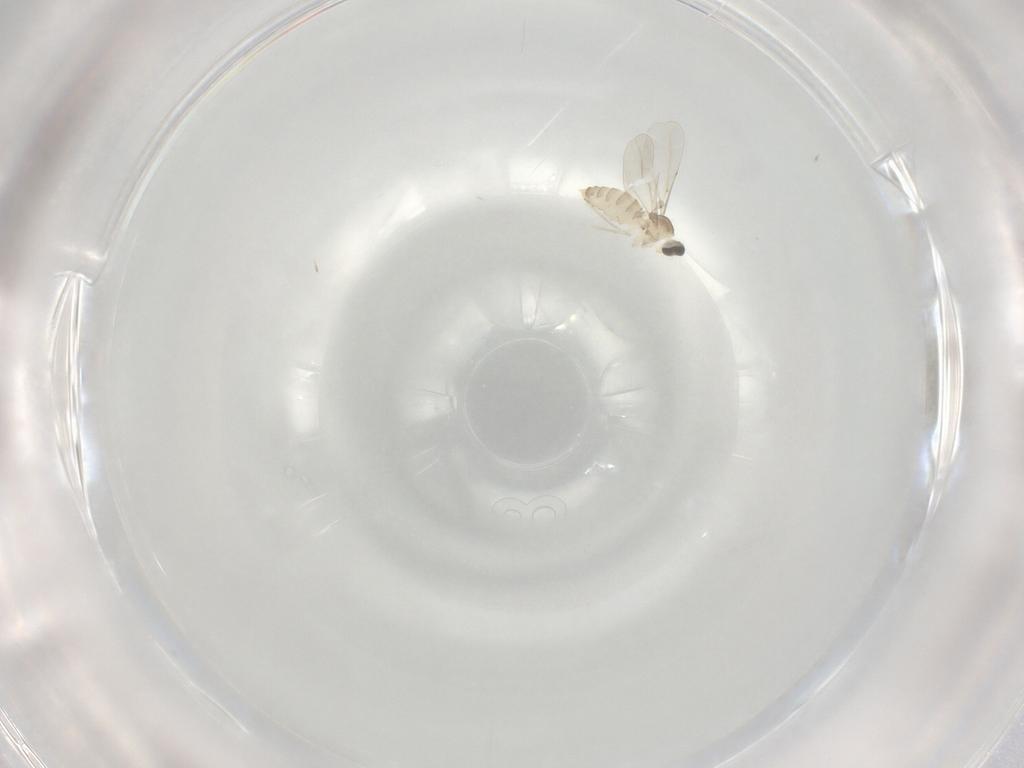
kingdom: Animalia
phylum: Arthropoda
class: Insecta
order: Diptera
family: Cecidomyiidae
